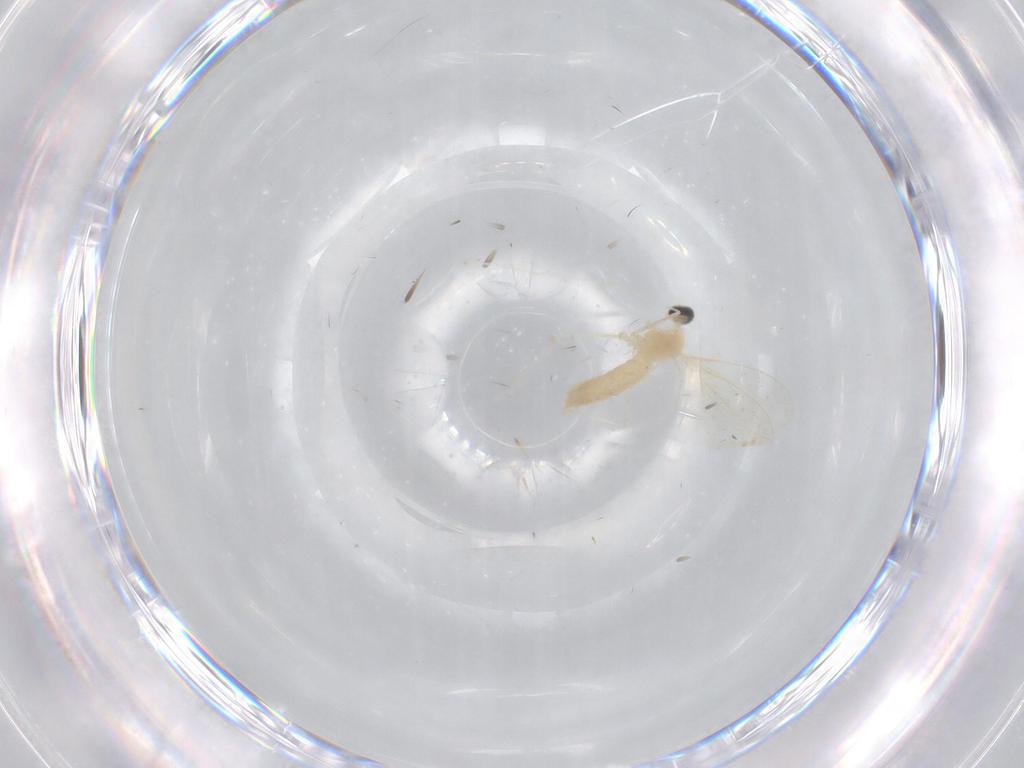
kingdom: Animalia
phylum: Arthropoda
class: Insecta
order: Diptera
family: Cecidomyiidae
